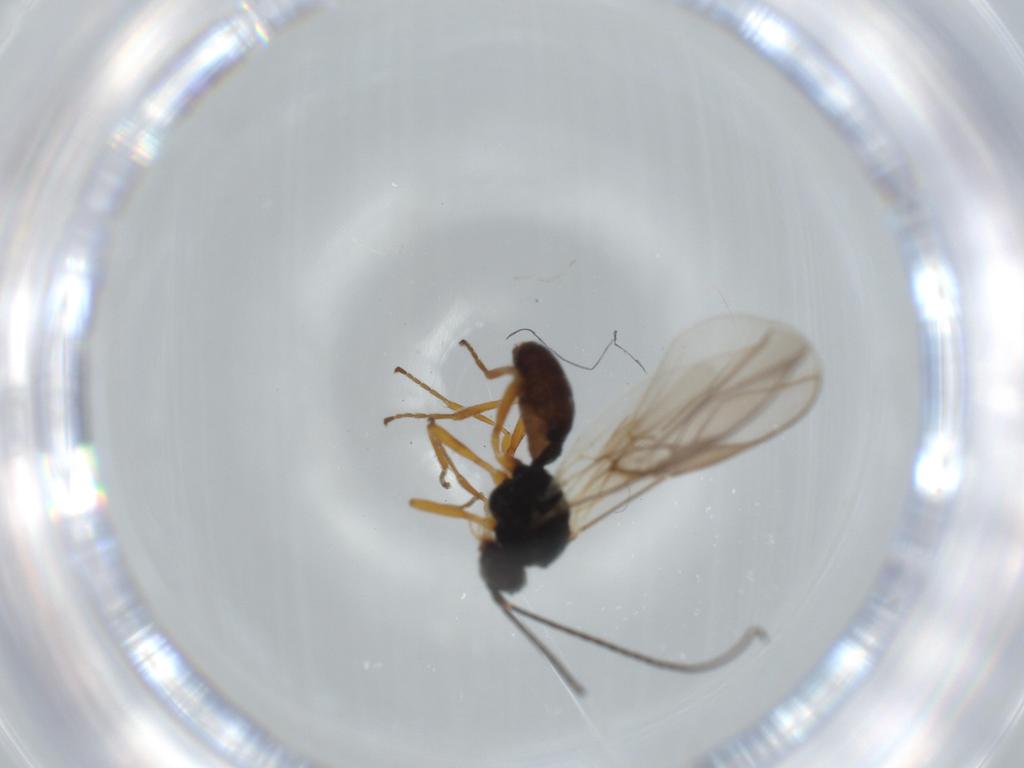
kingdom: Animalia
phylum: Arthropoda
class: Insecta
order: Hymenoptera
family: Braconidae
